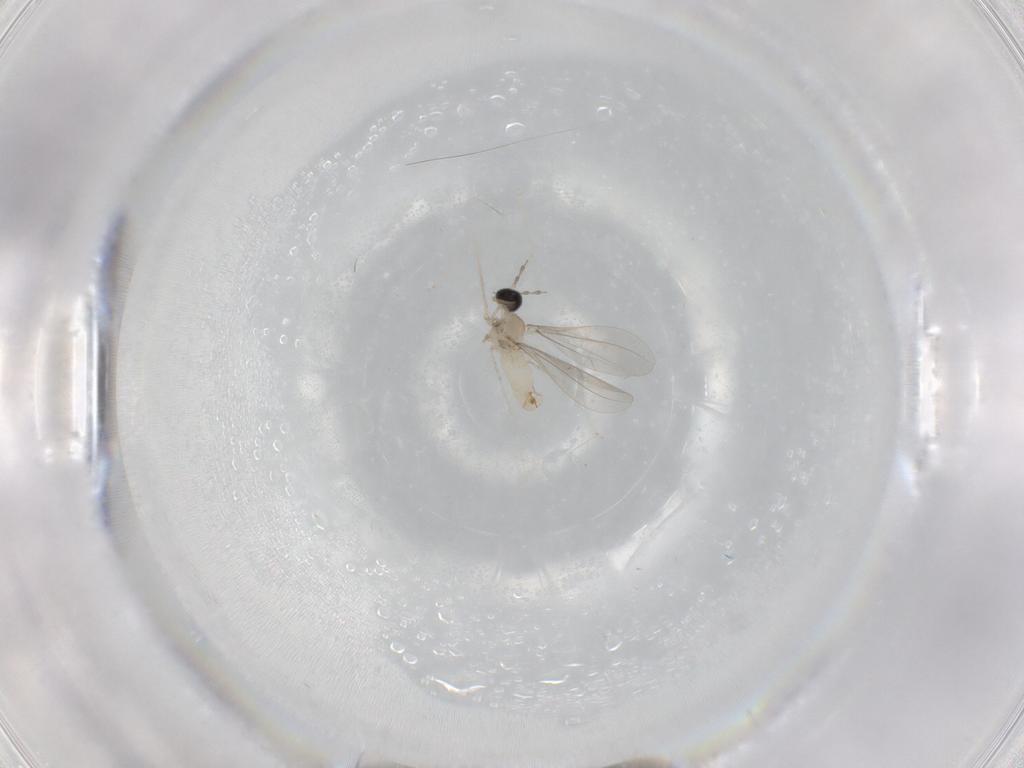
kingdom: Animalia
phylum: Arthropoda
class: Insecta
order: Diptera
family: Cecidomyiidae
